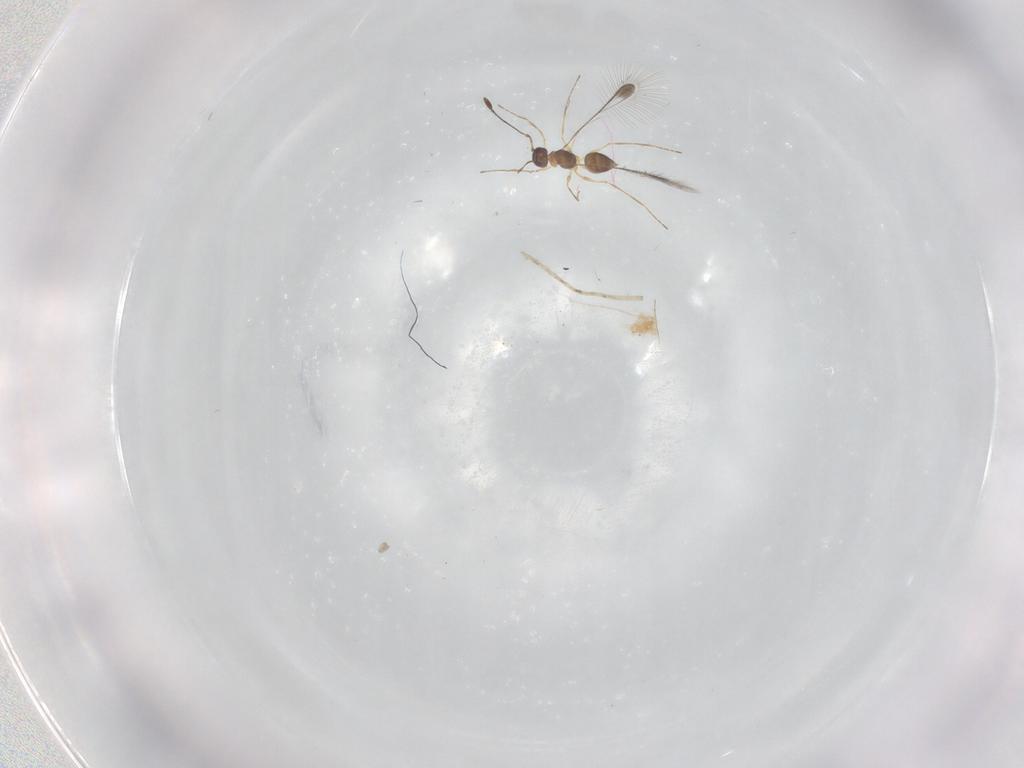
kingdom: Animalia
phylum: Arthropoda
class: Insecta
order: Hymenoptera
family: Mymaridae
